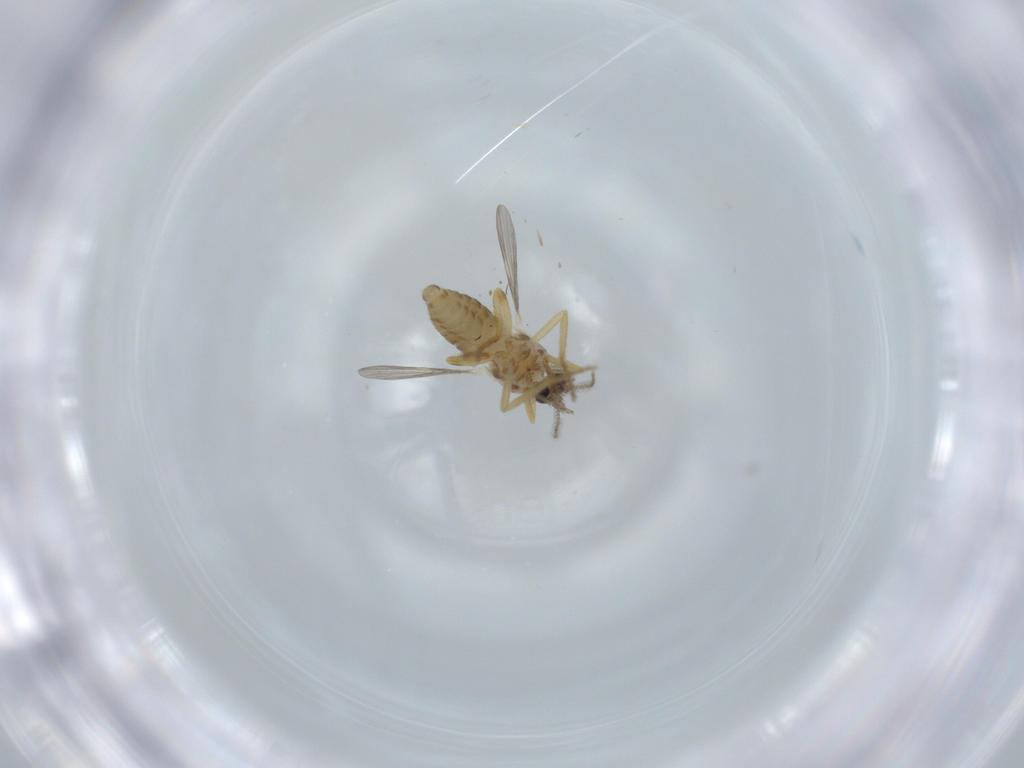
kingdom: Animalia
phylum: Arthropoda
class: Insecta
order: Diptera
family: Ceratopogonidae
